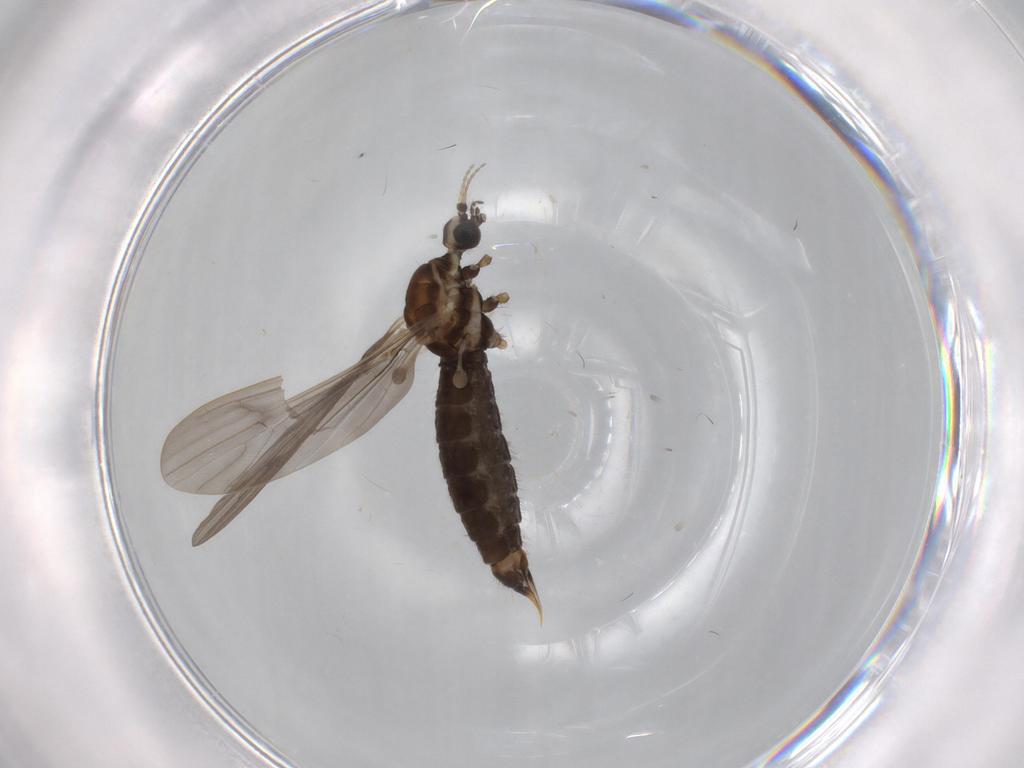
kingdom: Animalia
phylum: Arthropoda
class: Insecta
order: Diptera
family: Limoniidae
